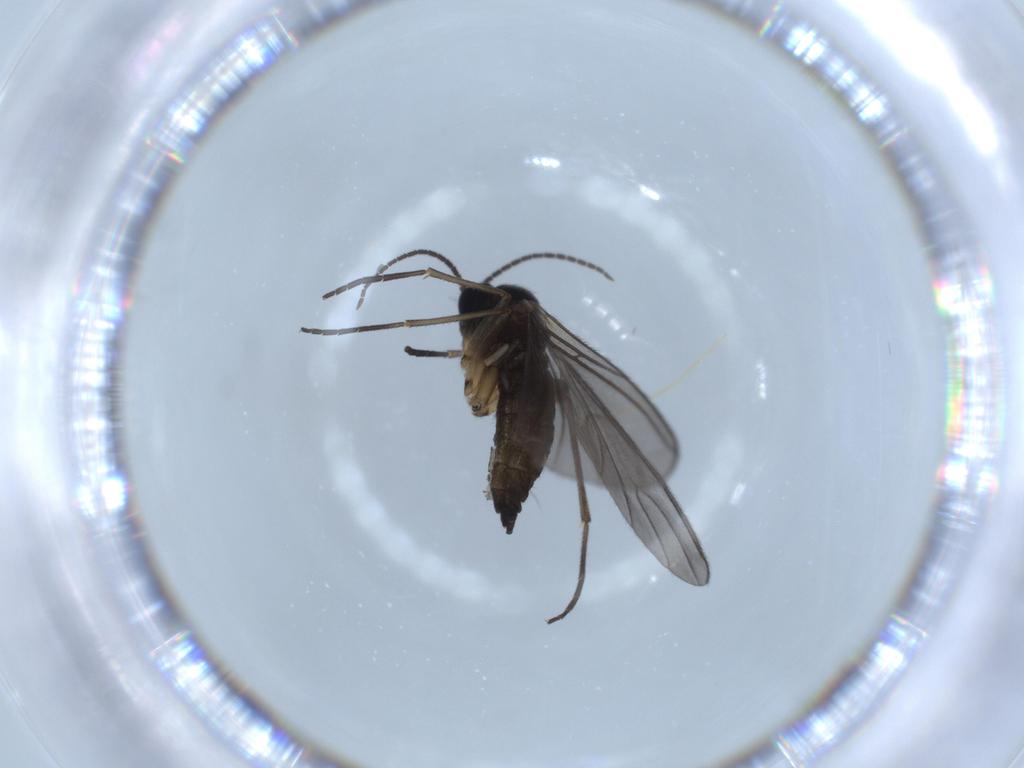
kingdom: Animalia
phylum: Arthropoda
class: Insecta
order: Diptera
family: Sciaridae
